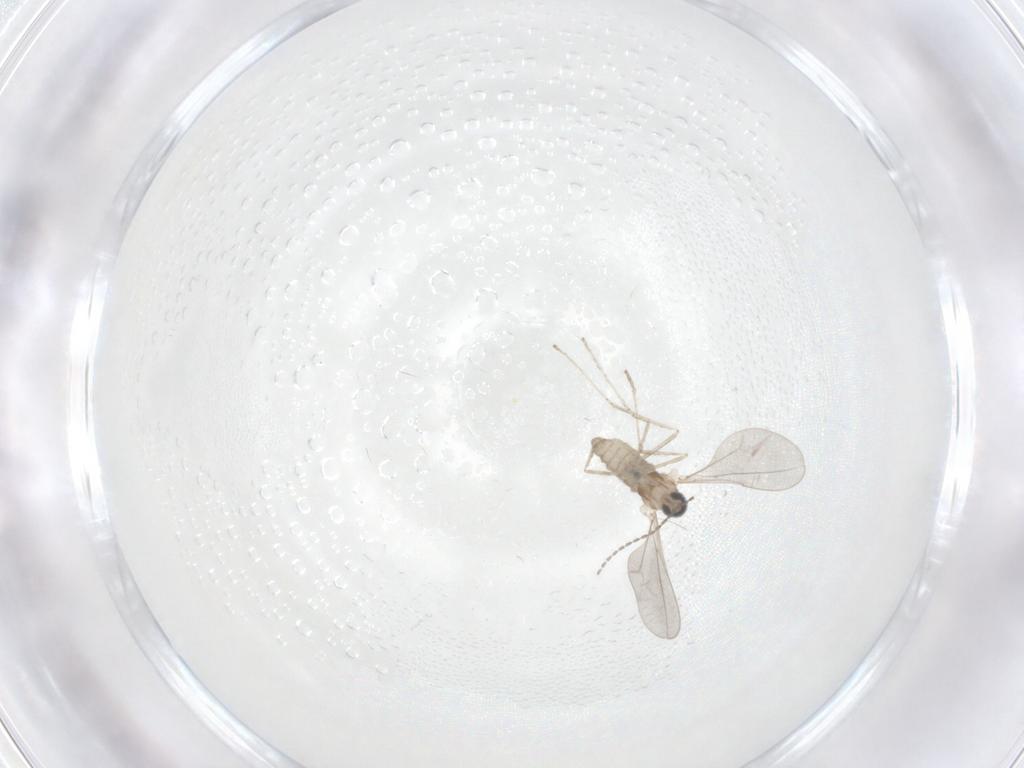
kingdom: Animalia
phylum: Arthropoda
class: Insecta
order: Diptera
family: Cecidomyiidae
